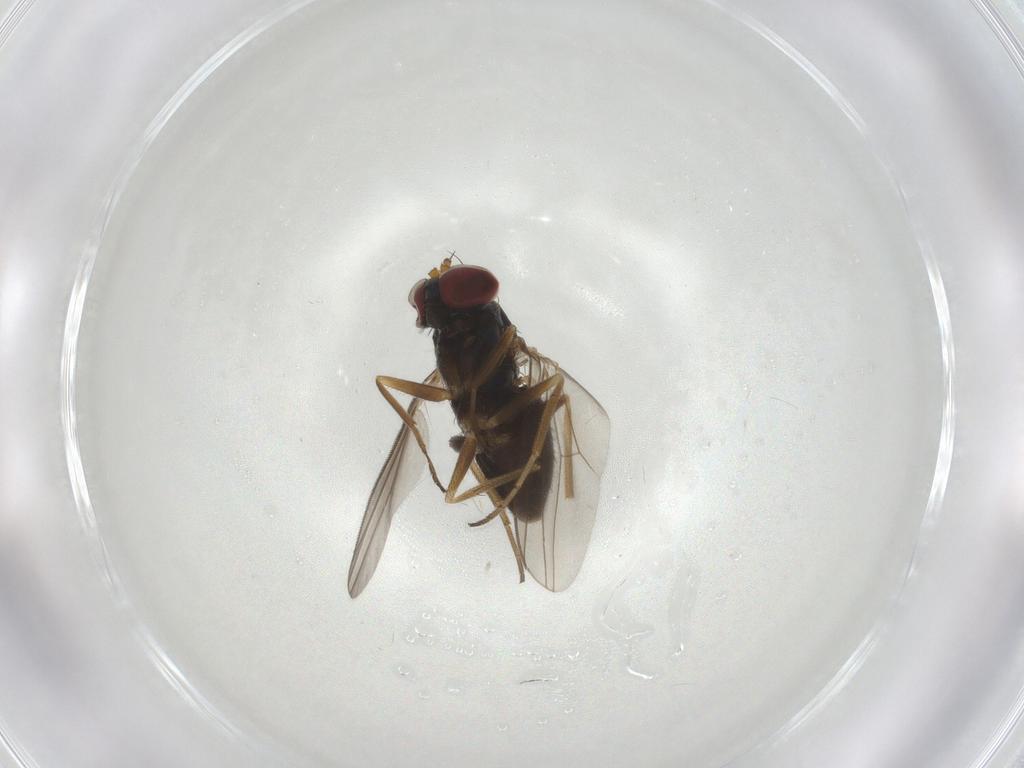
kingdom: Animalia
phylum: Arthropoda
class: Insecta
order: Diptera
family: Dolichopodidae
